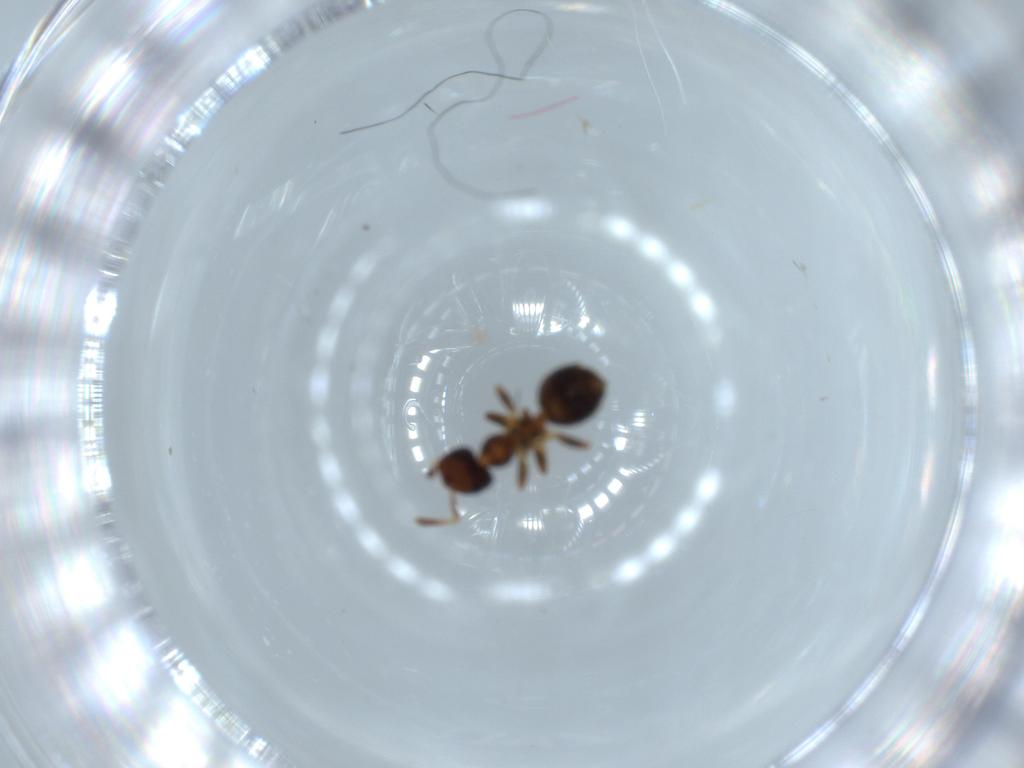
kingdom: Animalia
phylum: Arthropoda
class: Insecta
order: Hymenoptera
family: Formicidae
